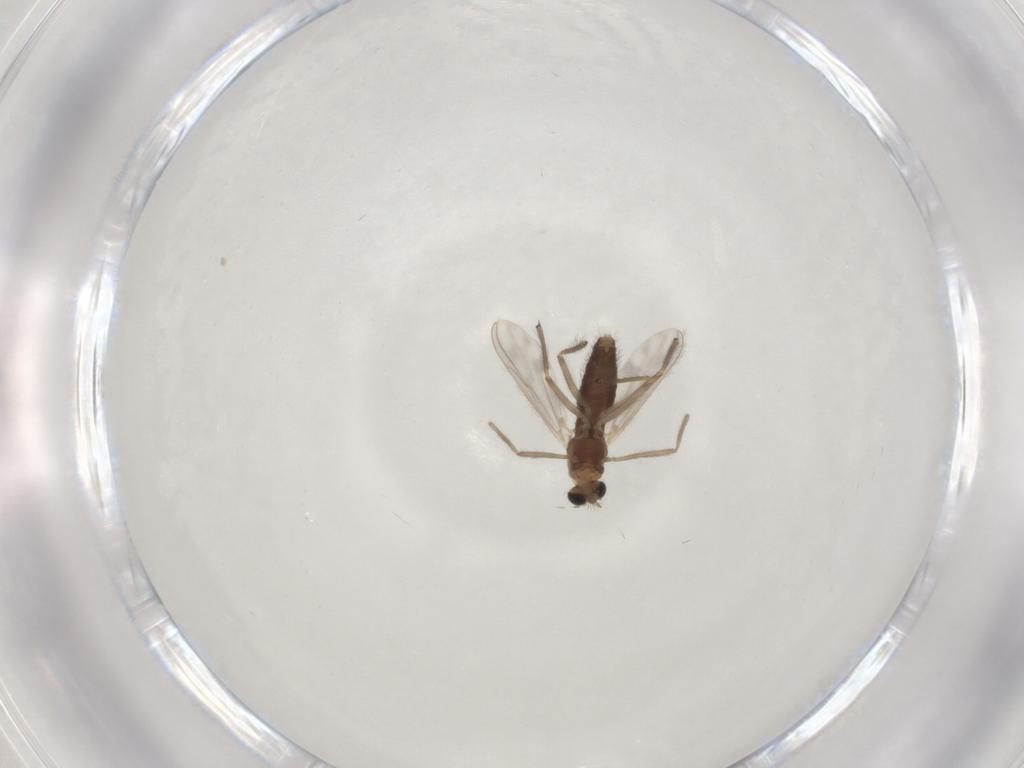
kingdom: Animalia
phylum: Arthropoda
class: Insecta
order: Diptera
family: Chironomidae
